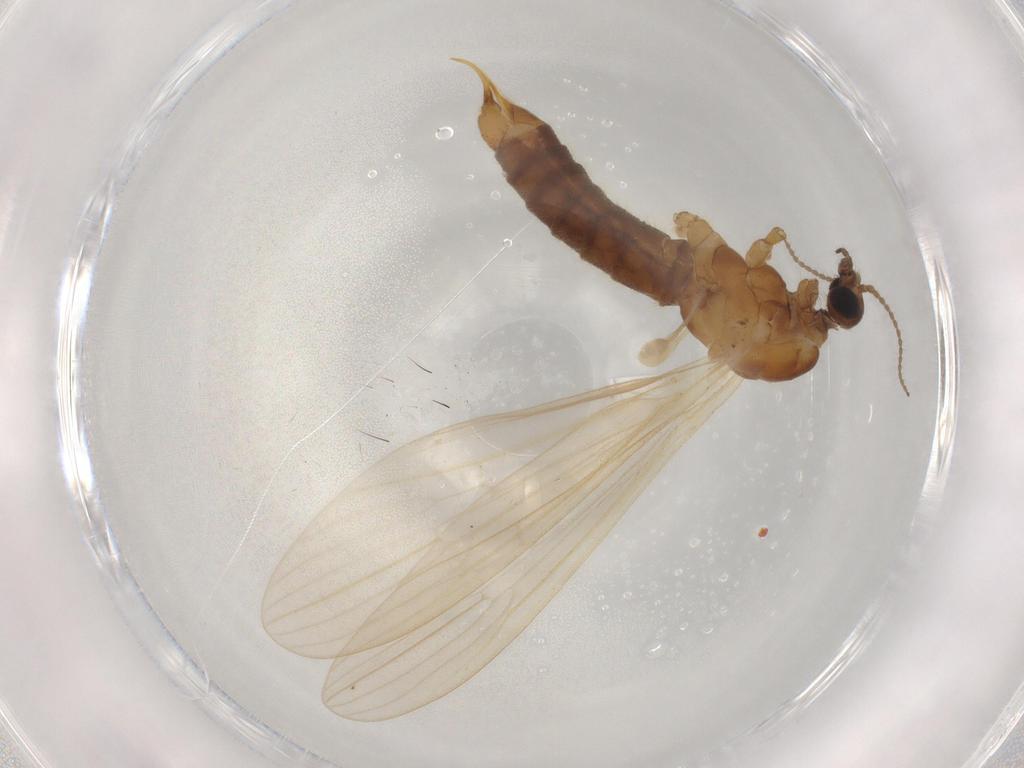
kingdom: Animalia
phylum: Arthropoda
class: Insecta
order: Diptera
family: Limoniidae
